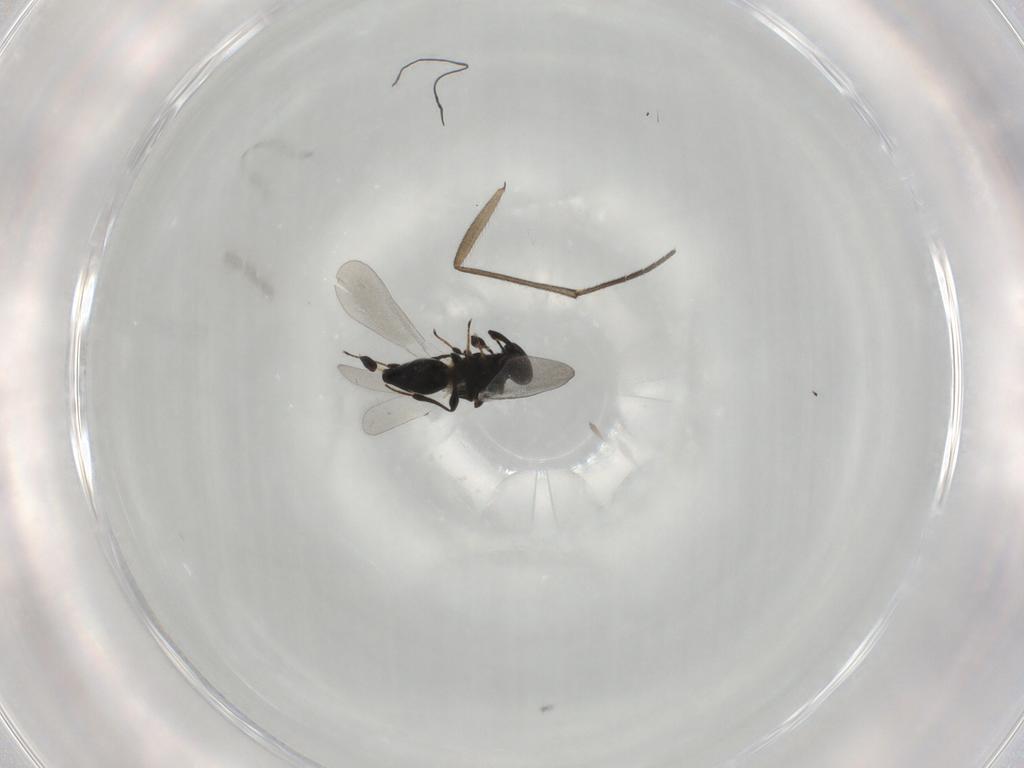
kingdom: Animalia
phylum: Arthropoda
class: Insecta
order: Hymenoptera
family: Platygastridae
